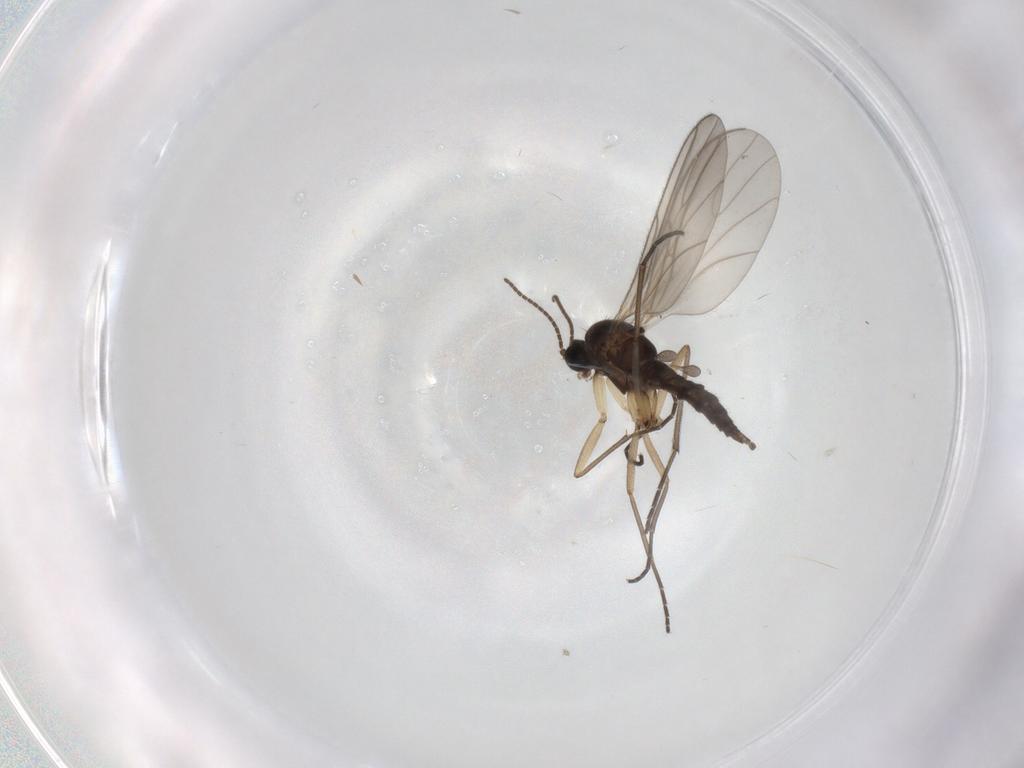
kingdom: Animalia
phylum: Arthropoda
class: Insecta
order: Diptera
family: Sciaridae
